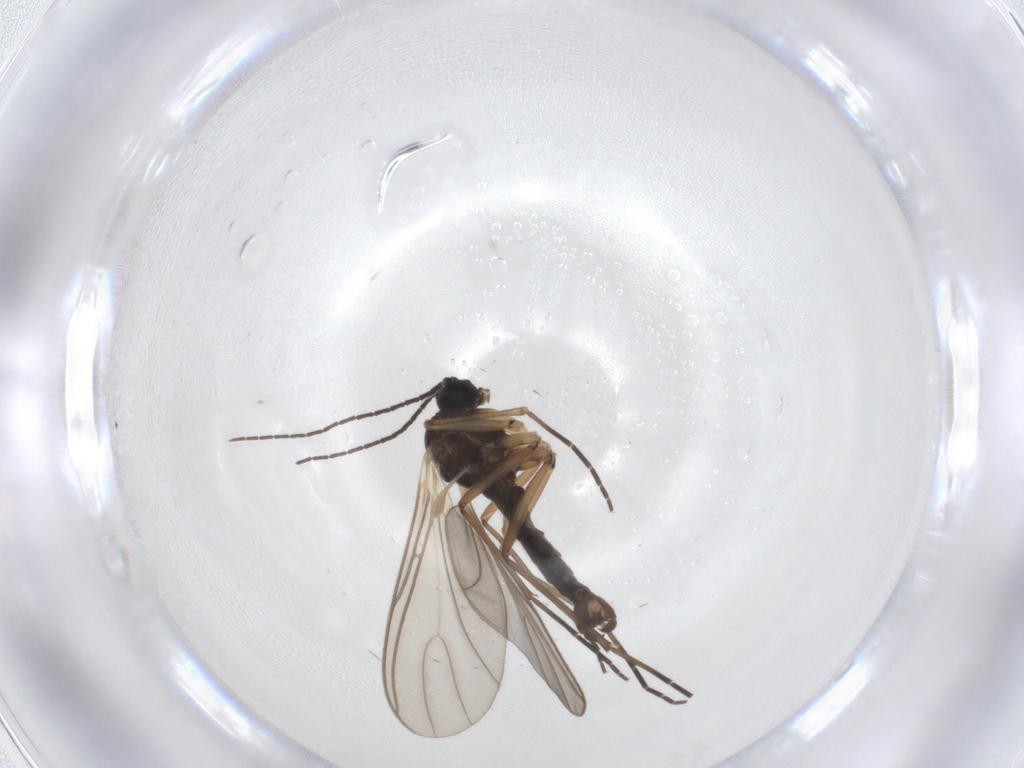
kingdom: Animalia
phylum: Arthropoda
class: Insecta
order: Diptera
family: Sciaridae
